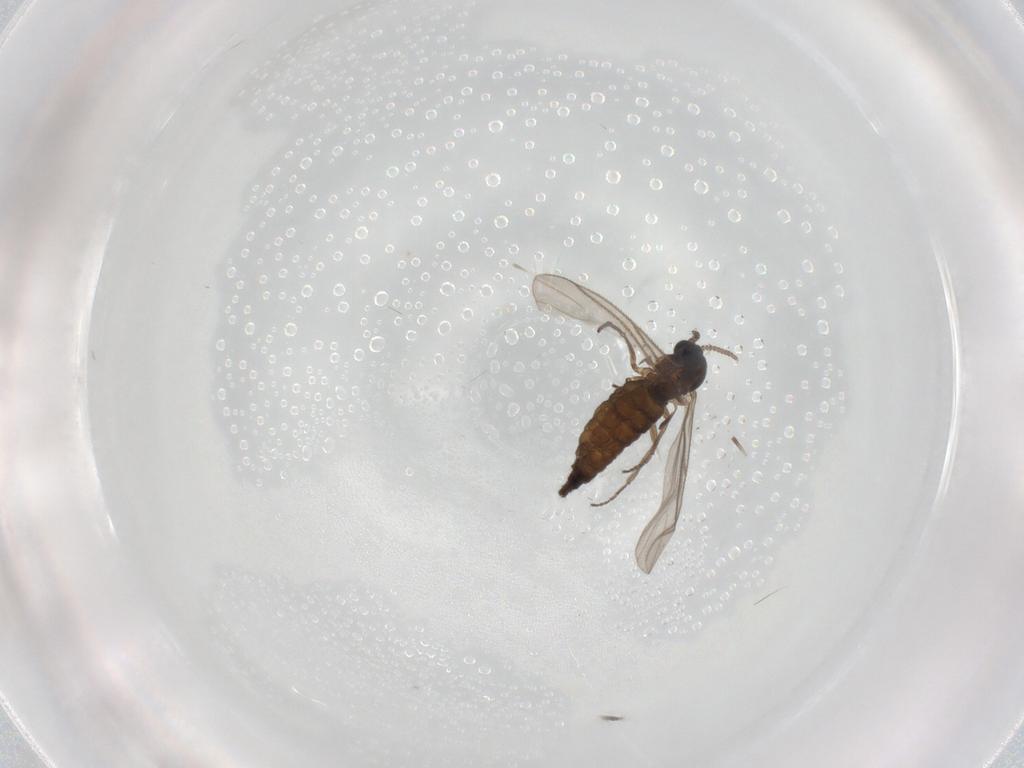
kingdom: Animalia
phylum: Arthropoda
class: Insecta
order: Diptera
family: Sciaridae
